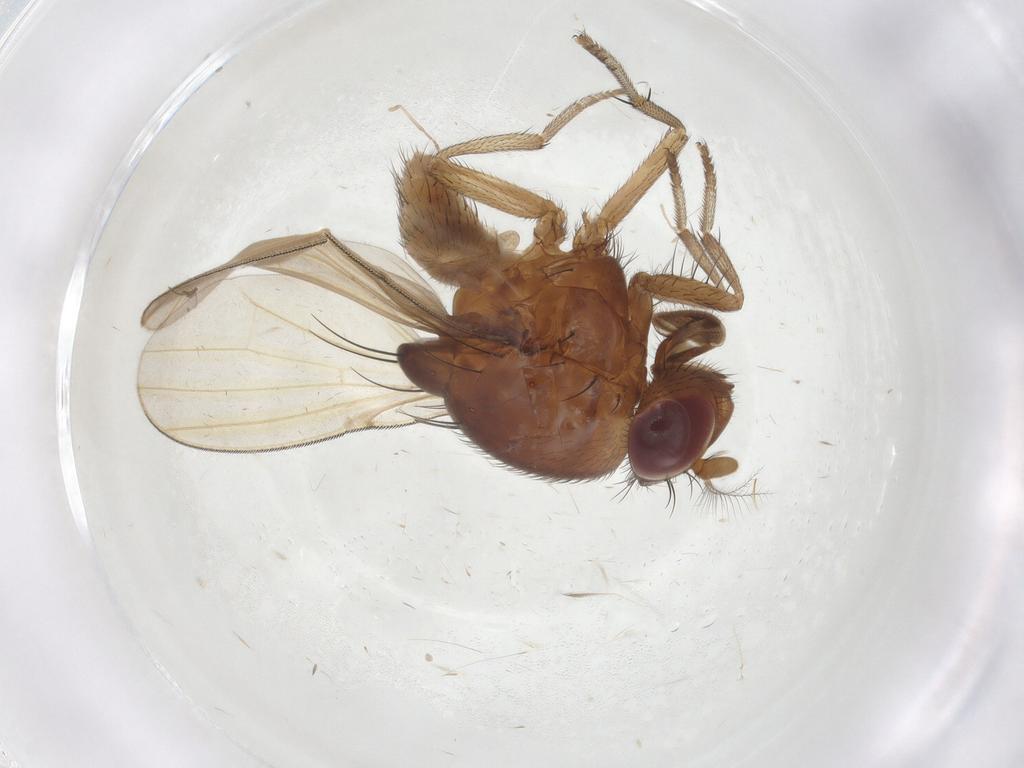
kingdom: Animalia
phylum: Arthropoda
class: Insecta
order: Diptera
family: Lauxaniidae
